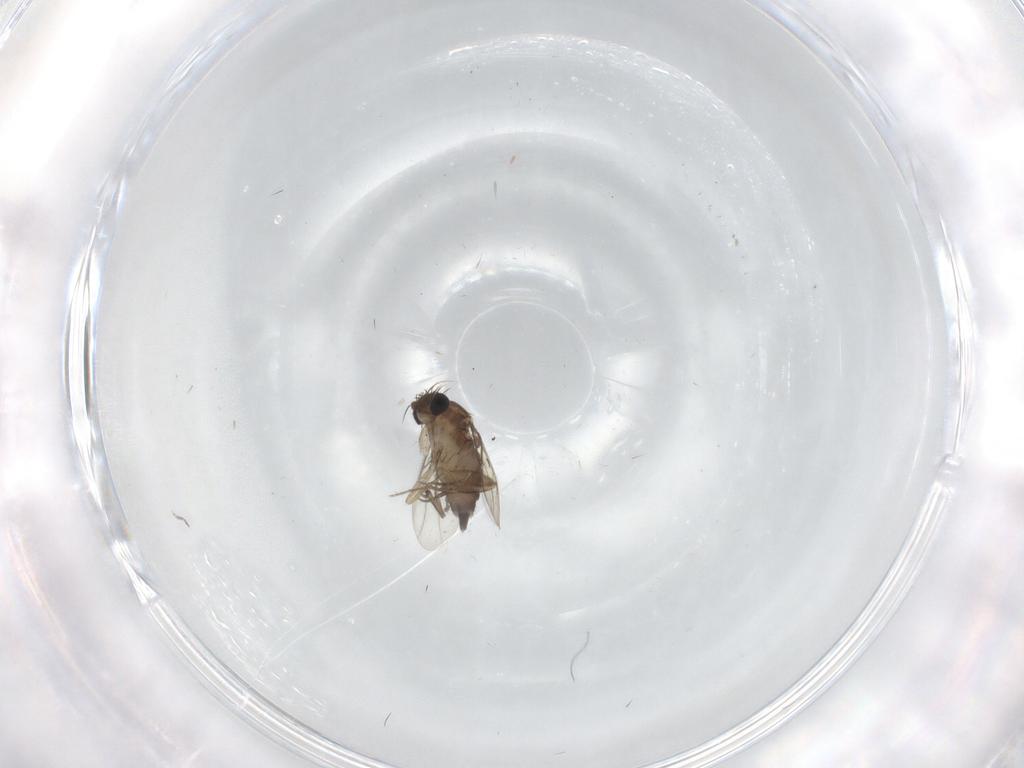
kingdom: Animalia
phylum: Arthropoda
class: Insecta
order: Diptera
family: Phoridae
